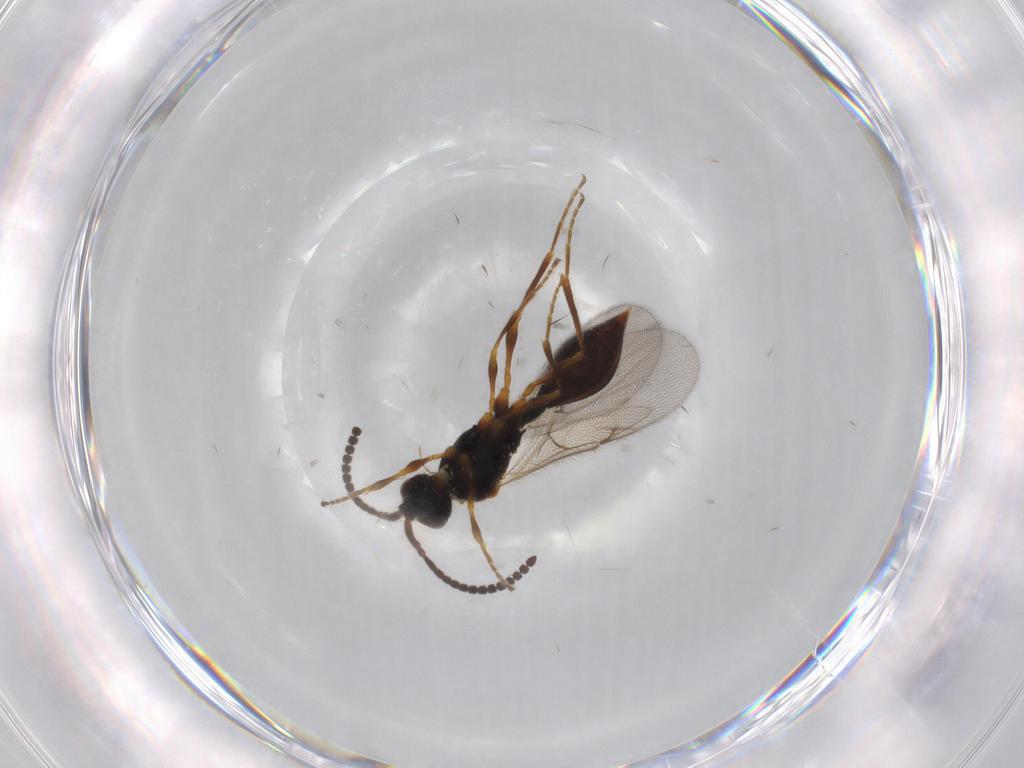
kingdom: Animalia
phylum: Arthropoda
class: Insecta
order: Hymenoptera
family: Diapriidae
